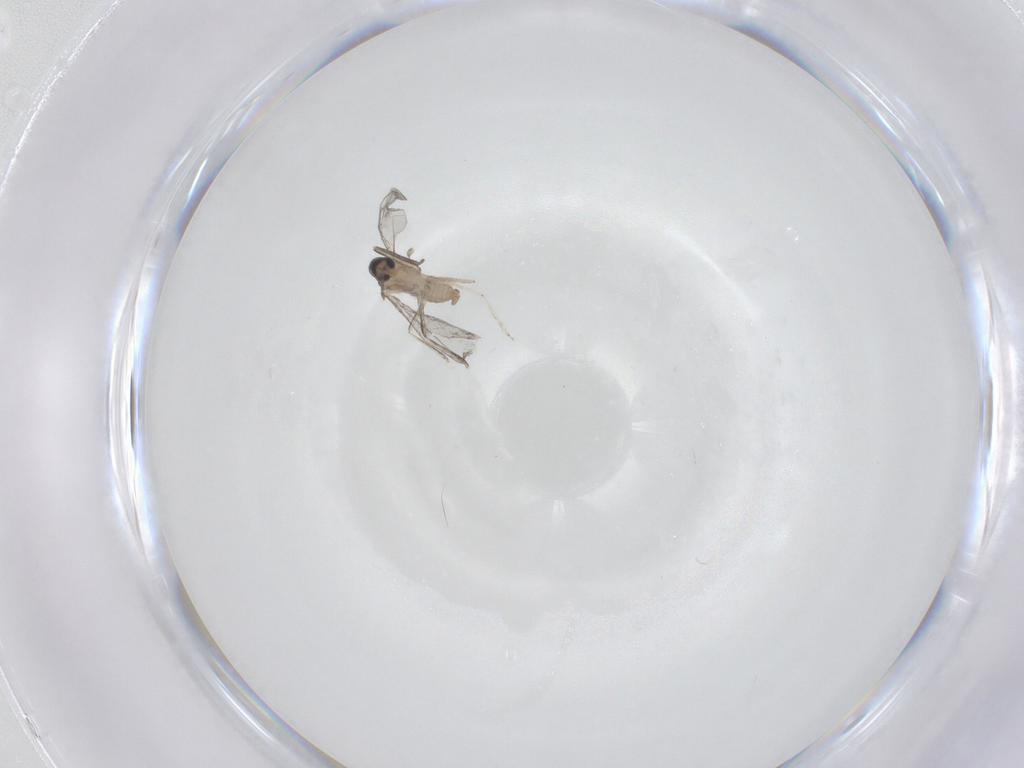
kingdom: Animalia
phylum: Arthropoda
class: Insecta
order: Diptera
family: Cecidomyiidae
